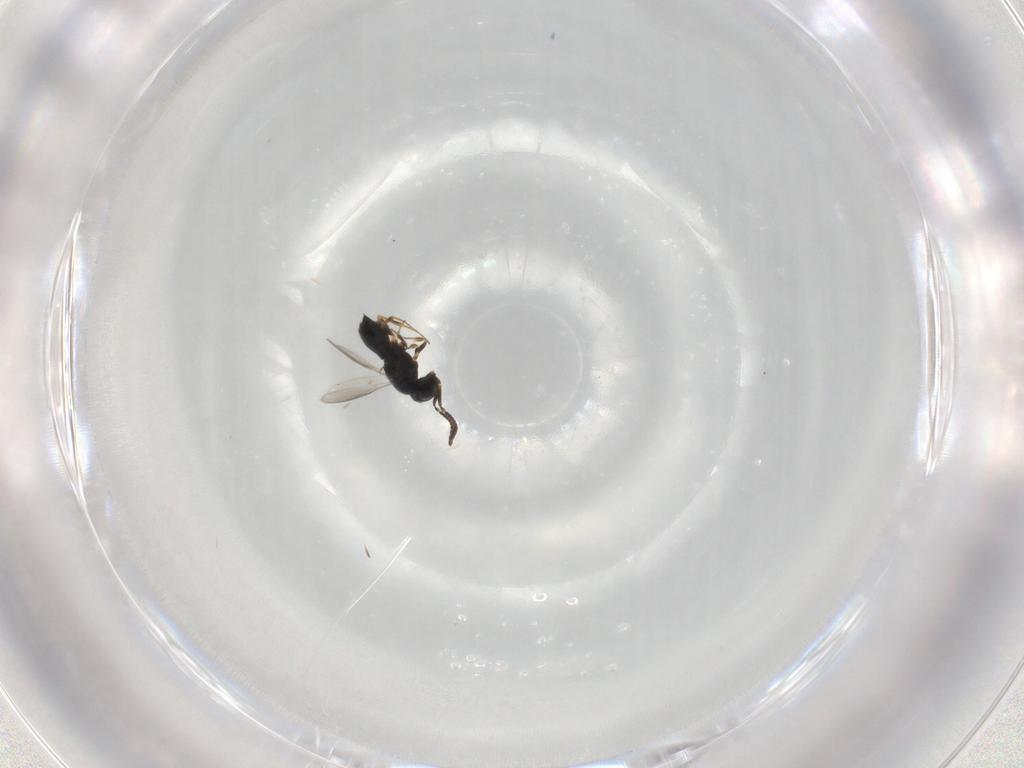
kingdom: Animalia
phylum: Arthropoda
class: Insecta
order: Hymenoptera
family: Scelionidae
